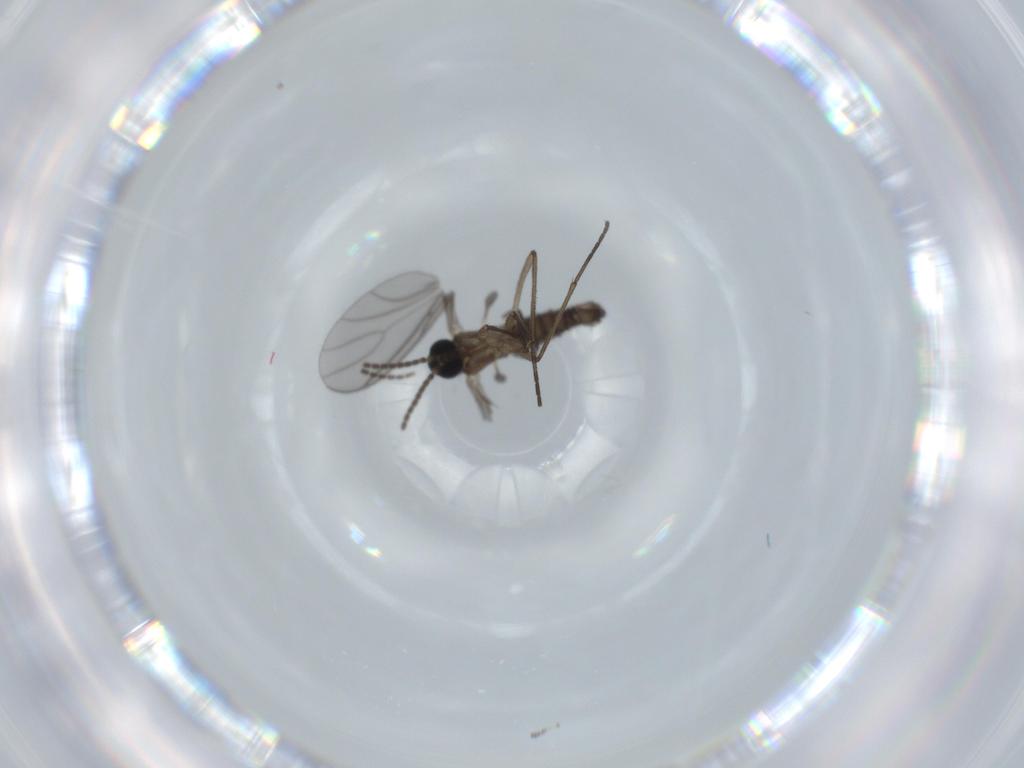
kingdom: Animalia
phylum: Arthropoda
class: Insecta
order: Diptera
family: Sciaridae
